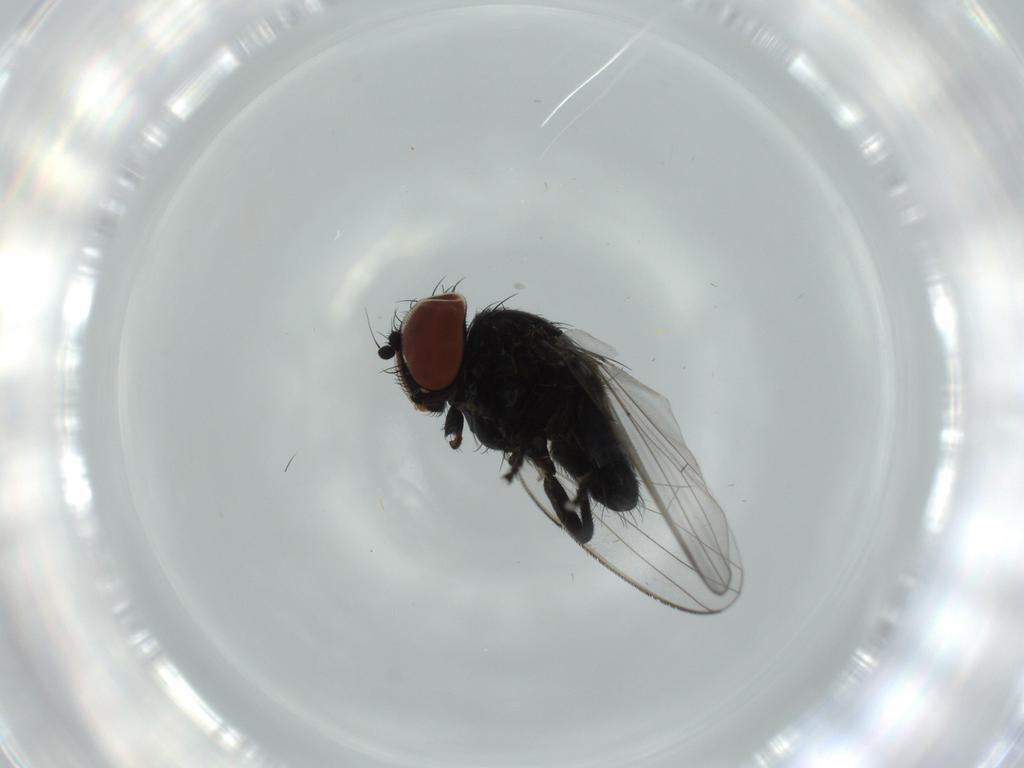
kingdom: Animalia
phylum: Arthropoda
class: Insecta
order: Diptera
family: Milichiidae
